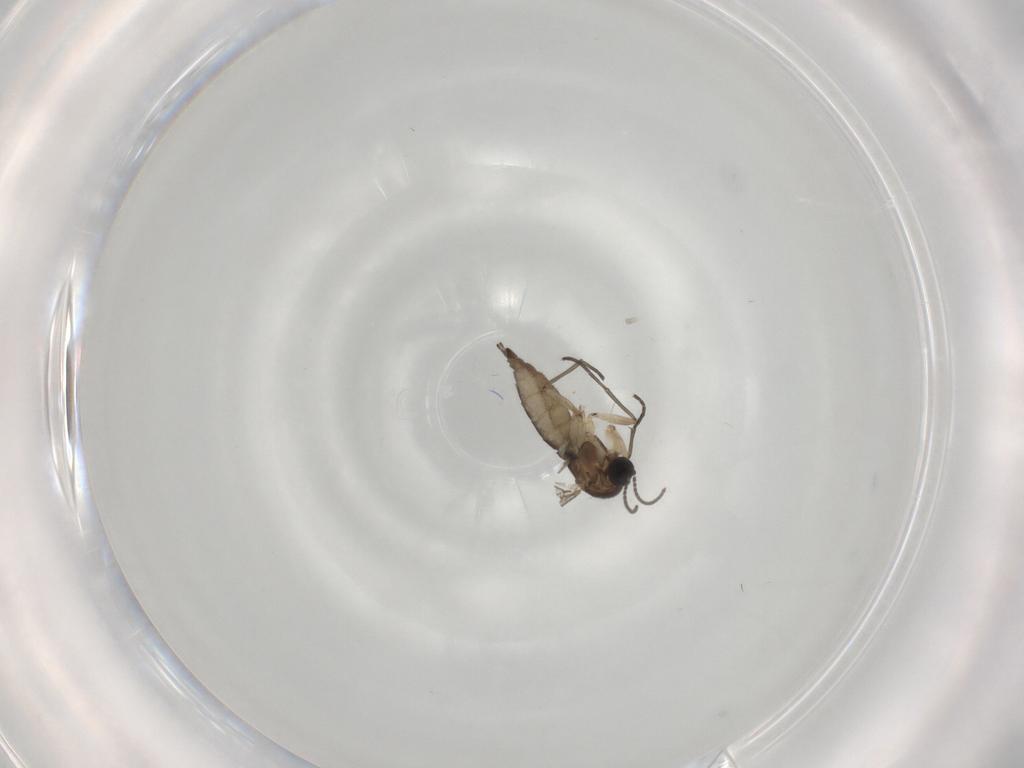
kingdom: Animalia
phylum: Arthropoda
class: Insecta
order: Diptera
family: Sciaridae
